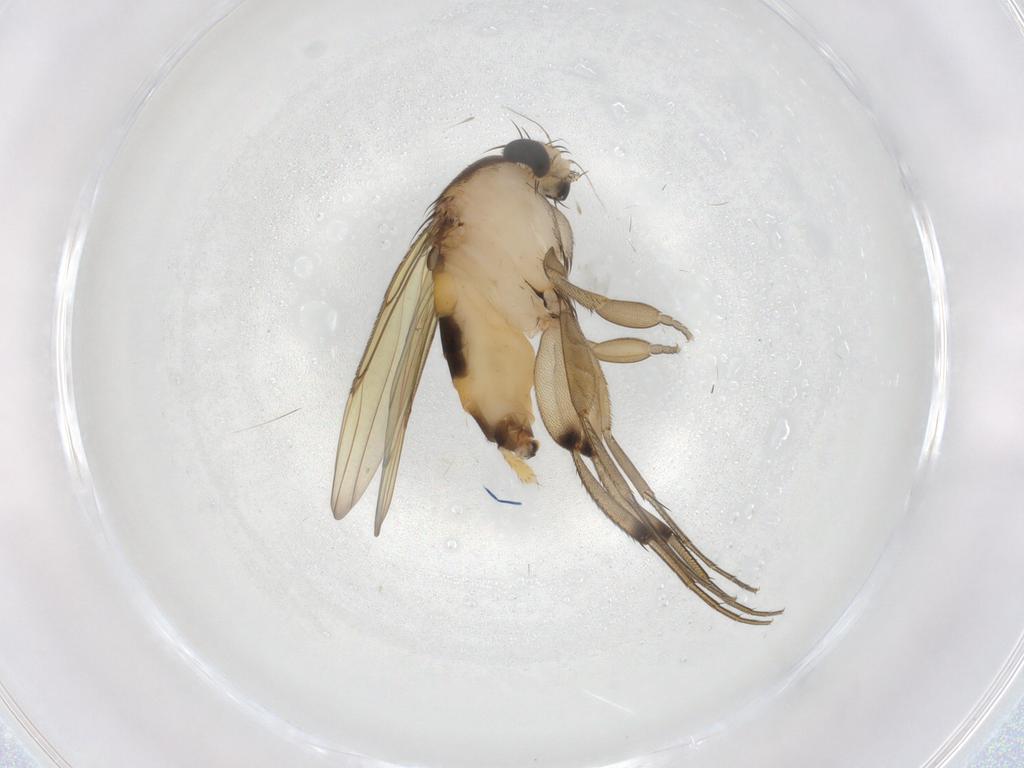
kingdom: Animalia
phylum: Arthropoda
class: Insecta
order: Diptera
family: Phoridae
